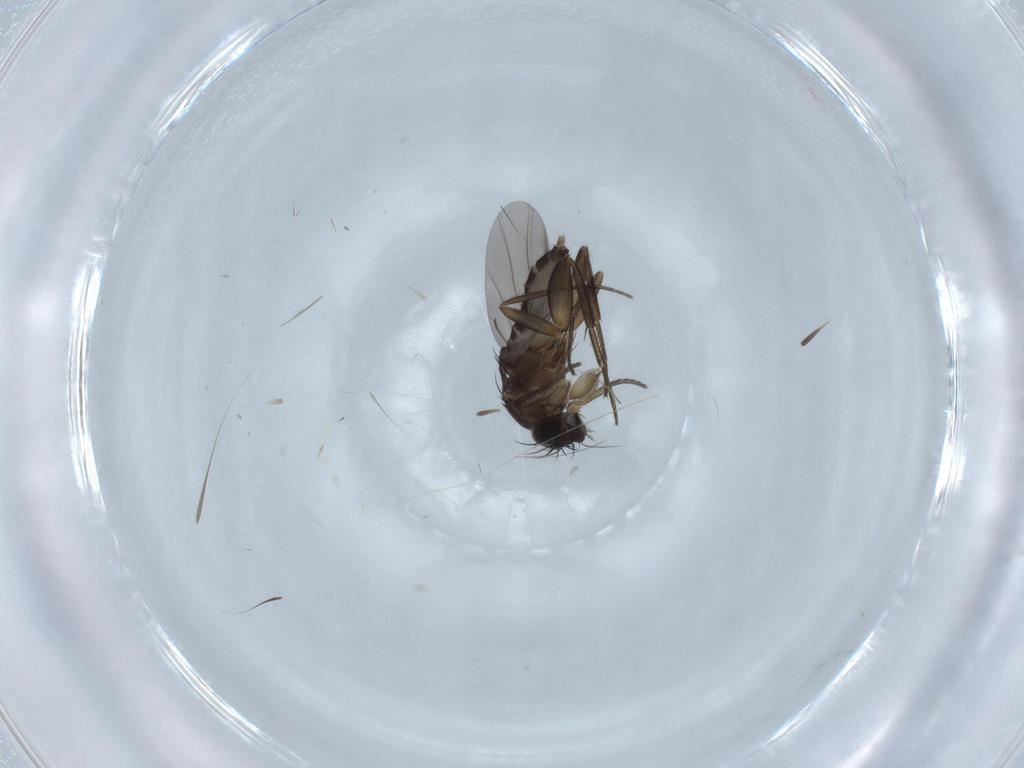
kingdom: Animalia
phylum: Arthropoda
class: Insecta
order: Diptera
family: Phoridae
